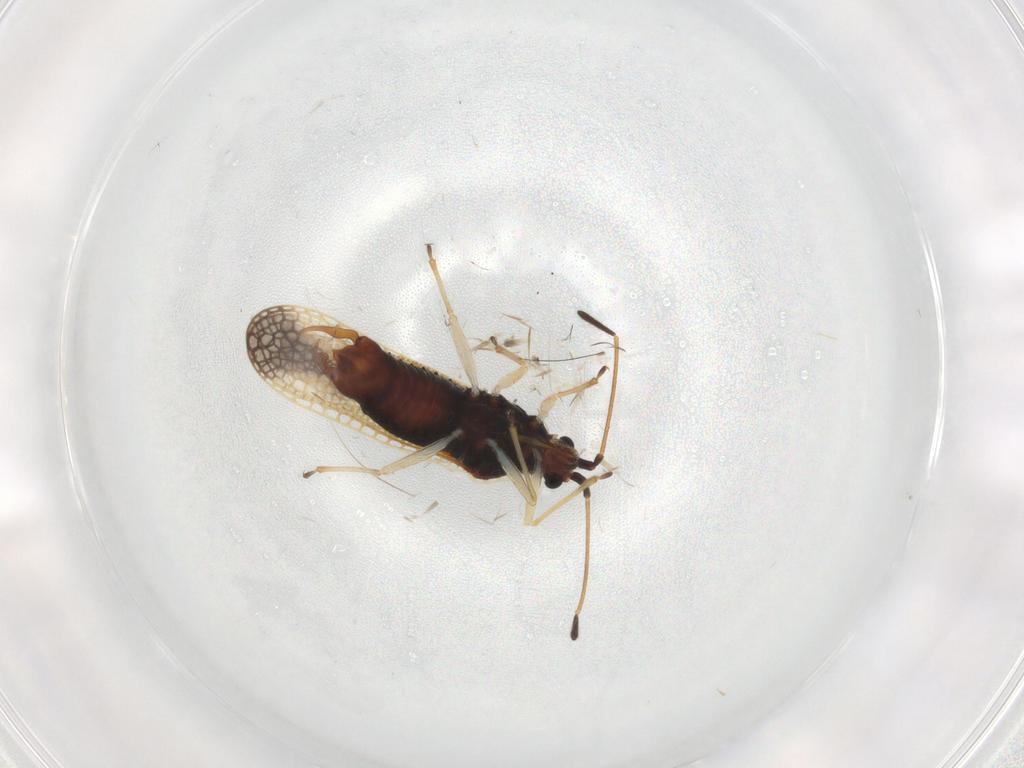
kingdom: Animalia
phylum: Arthropoda
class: Insecta
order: Hemiptera
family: Tingidae
